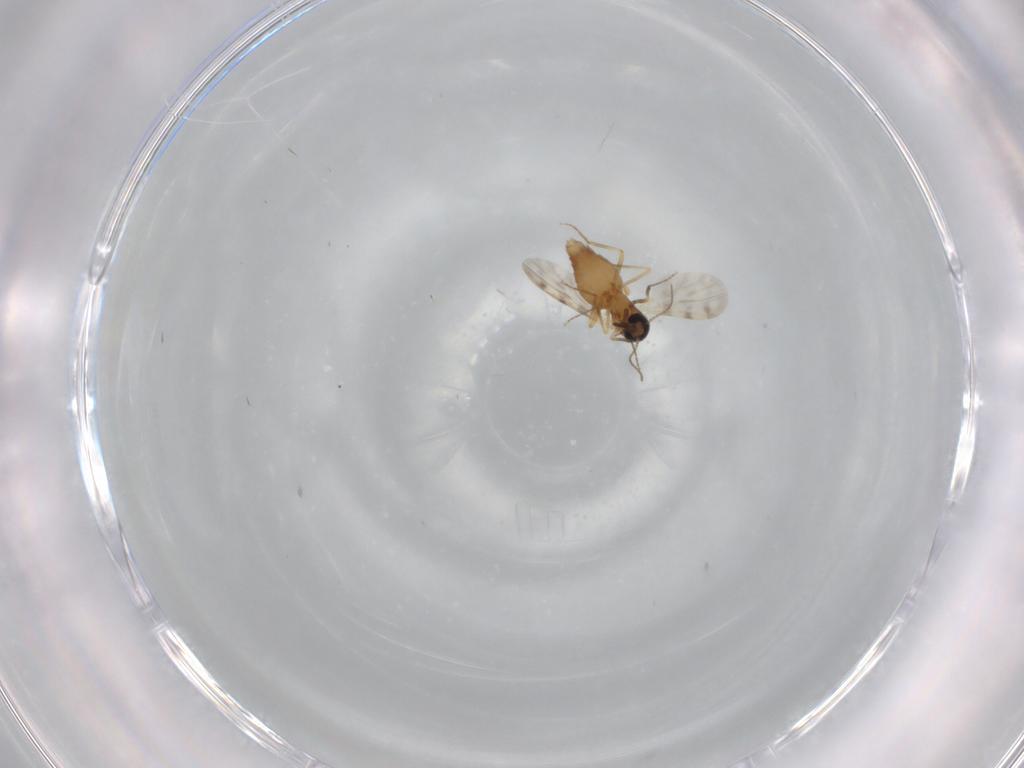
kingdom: Animalia
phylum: Arthropoda
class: Insecta
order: Diptera
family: Ceratopogonidae
